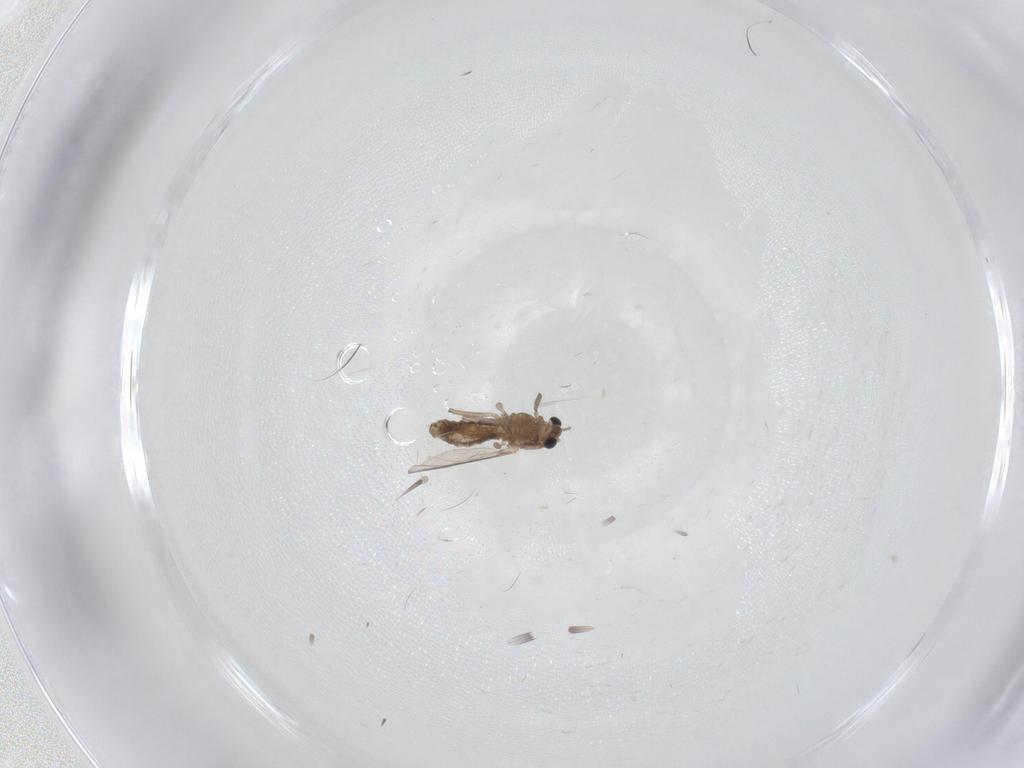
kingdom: Animalia
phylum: Arthropoda
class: Insecta
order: Diptera
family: Chironomidae
